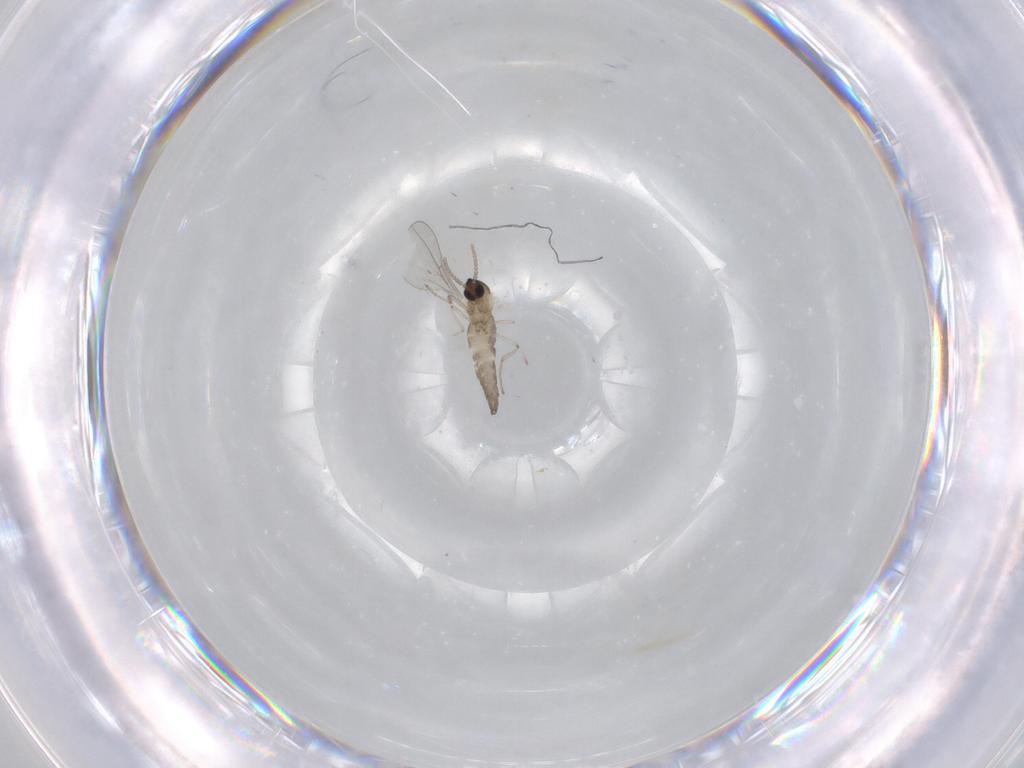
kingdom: Animalia
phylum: Arthropoda
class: Insecta
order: Diptera
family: Cecidomyiidae
